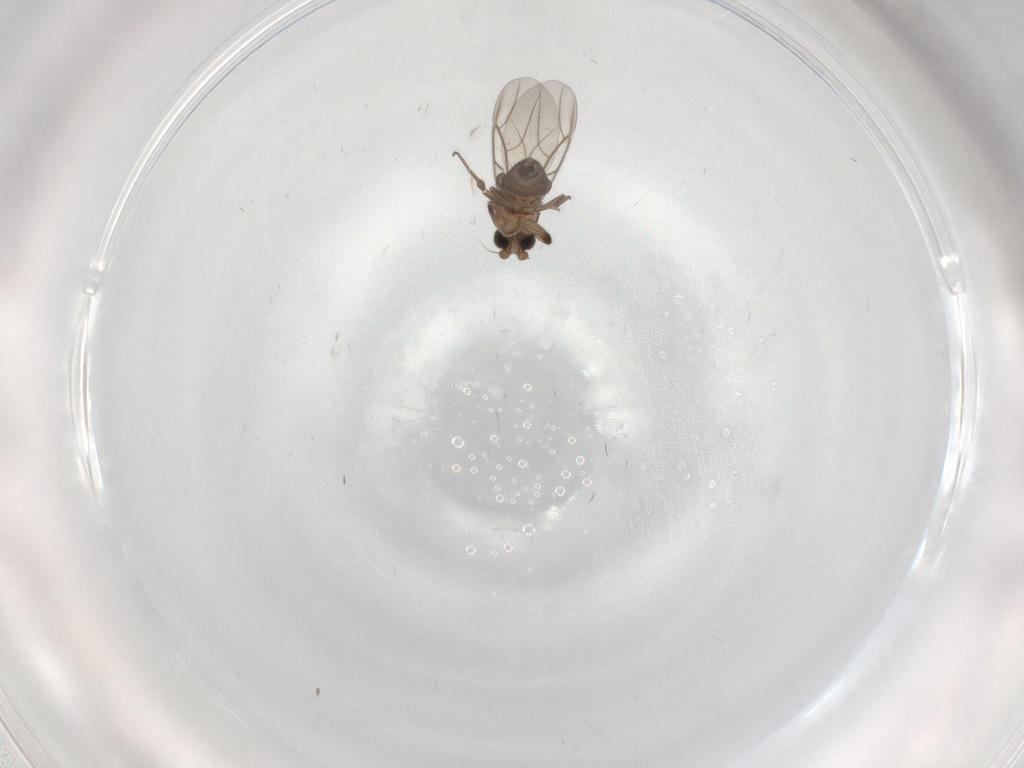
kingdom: Animalia
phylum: Arthropoda
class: Insecta
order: Diptera
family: Phoridae
